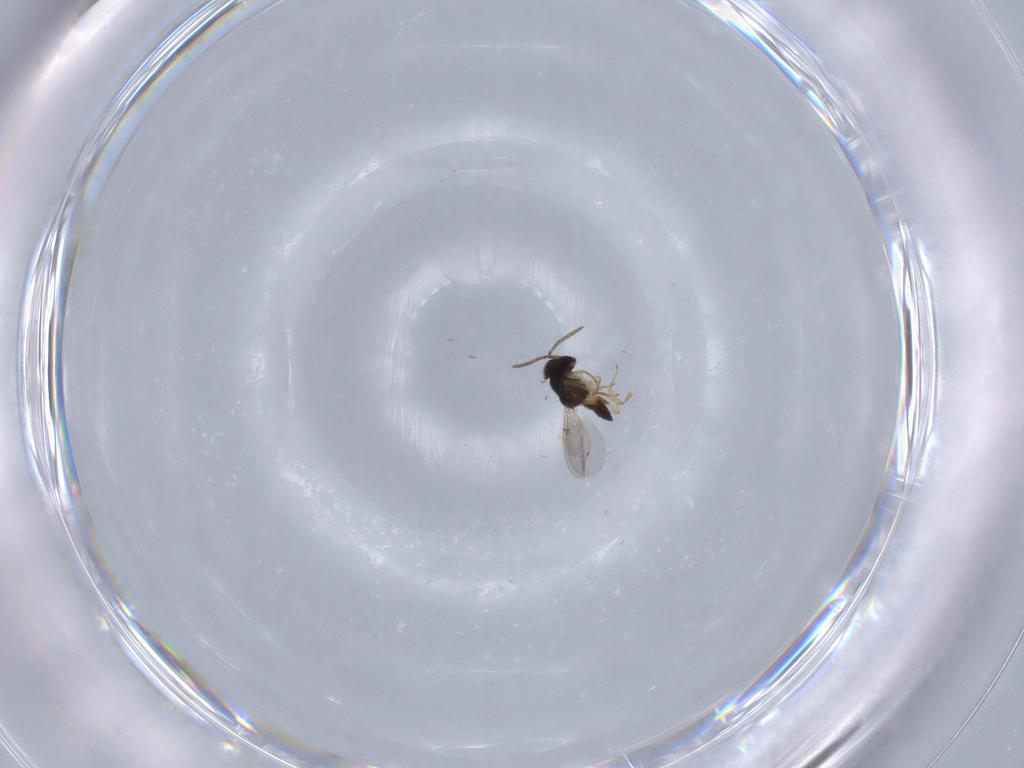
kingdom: Animalia
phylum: Arthropoda
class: Insecta
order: Hymenoptera
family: Encyrtidae
